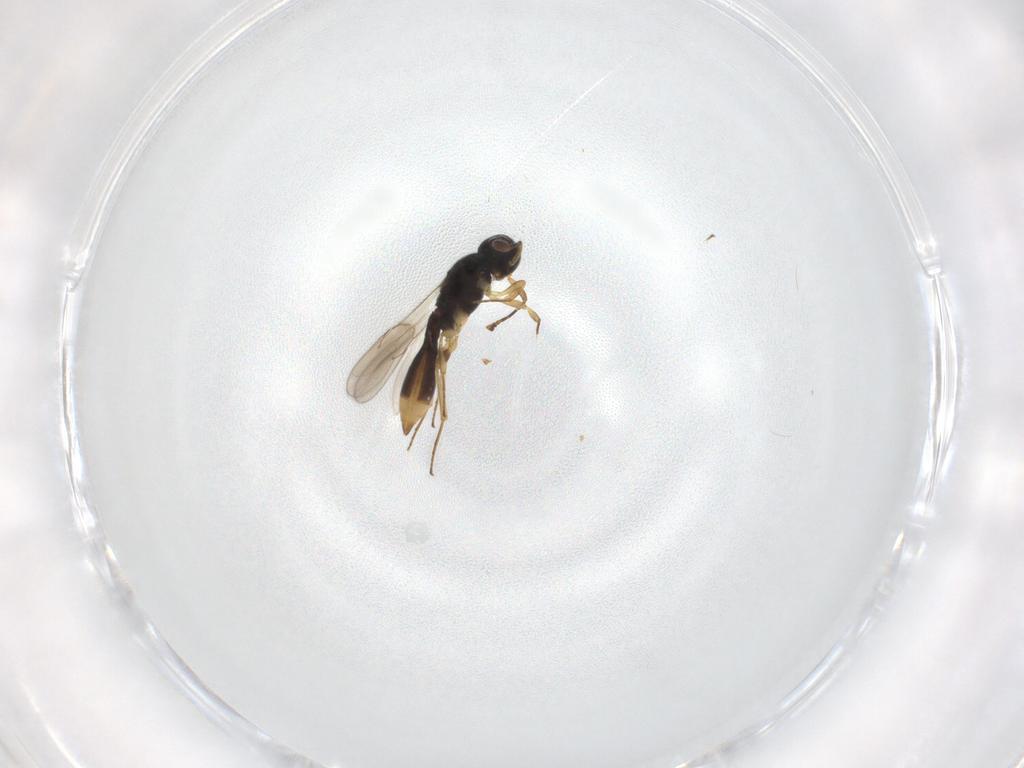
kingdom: Animalia
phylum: Arthropoda
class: Insecta
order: Hymenoptera
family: Scelionidae
